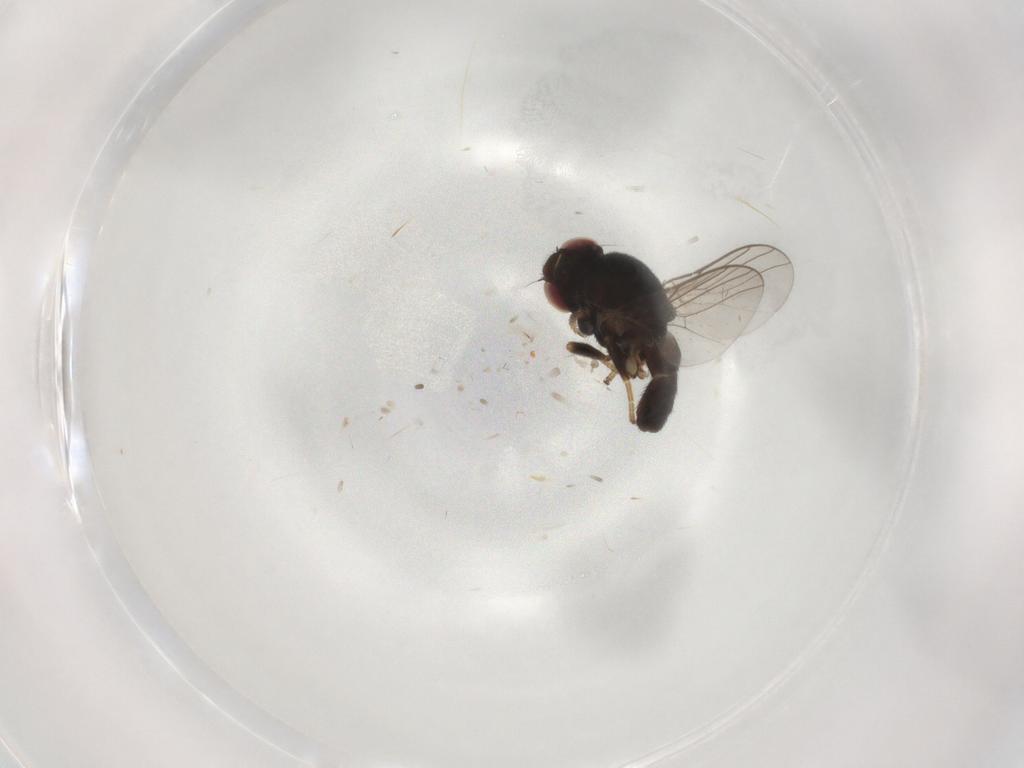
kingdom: Animalia
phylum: Arthropoda
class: Insecta
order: Diptera
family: Chloropidae
